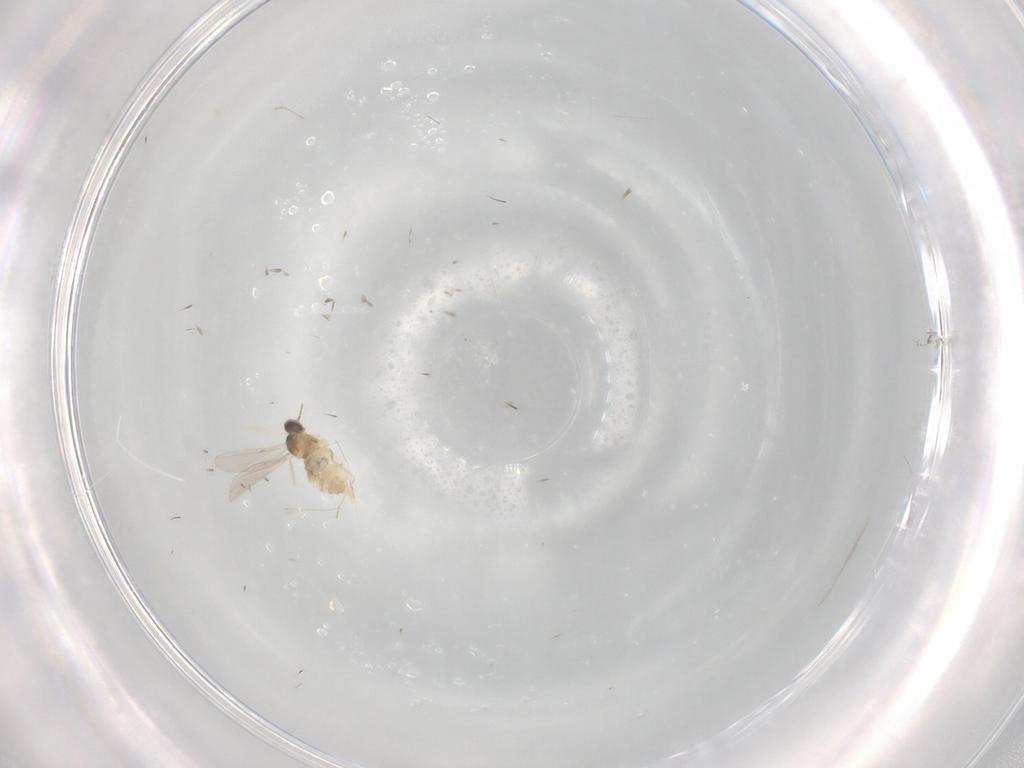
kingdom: Animalia
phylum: Arthropoda
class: Insecta
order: Diptera
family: Cecidomyiidae
